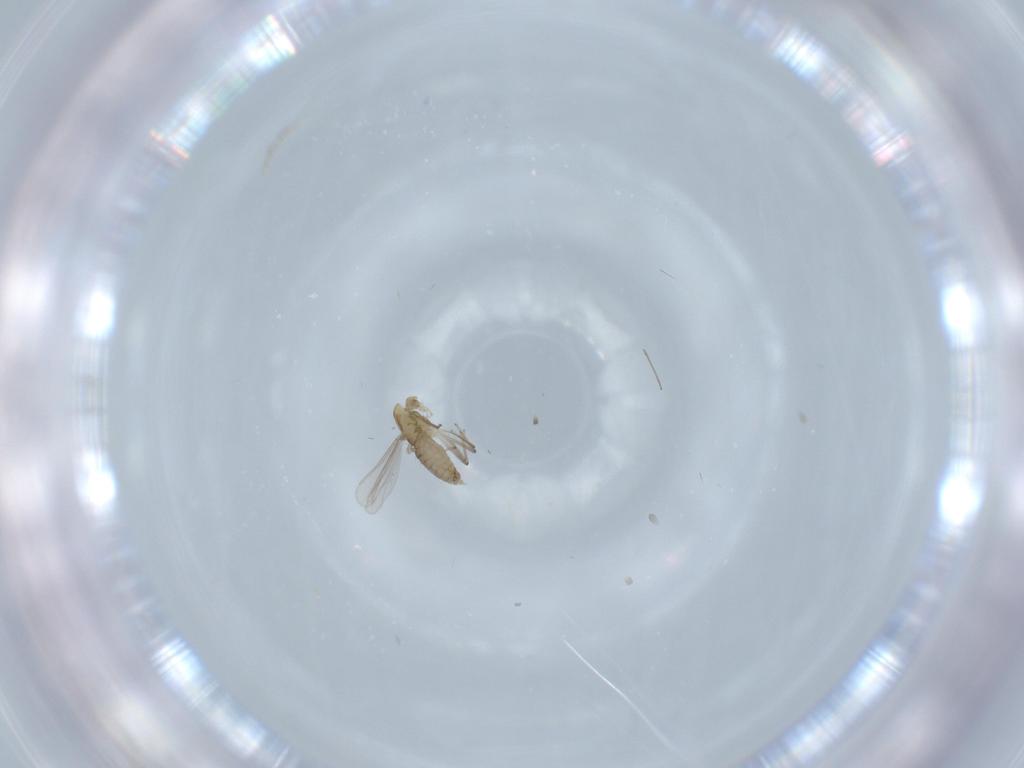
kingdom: Animalia
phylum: Arthropoda
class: Insecta
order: Diptera
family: Chironomidae
